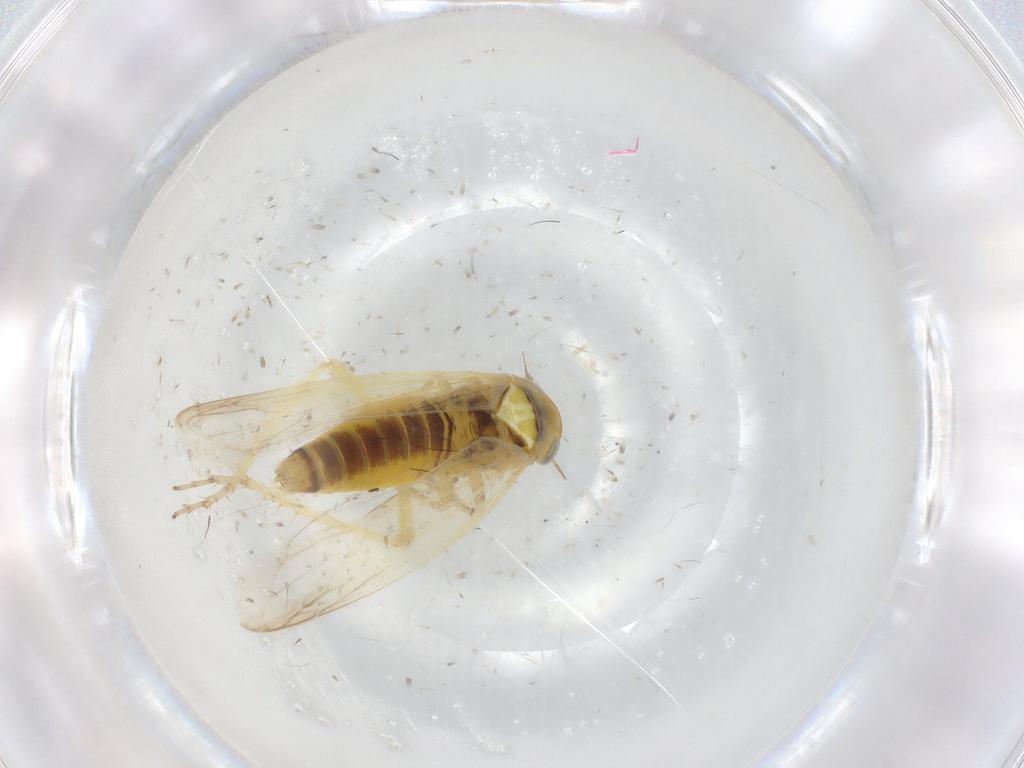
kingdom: Animalia
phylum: Arthropoda
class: Insecta
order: Hemiptera
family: Cicadellidae
